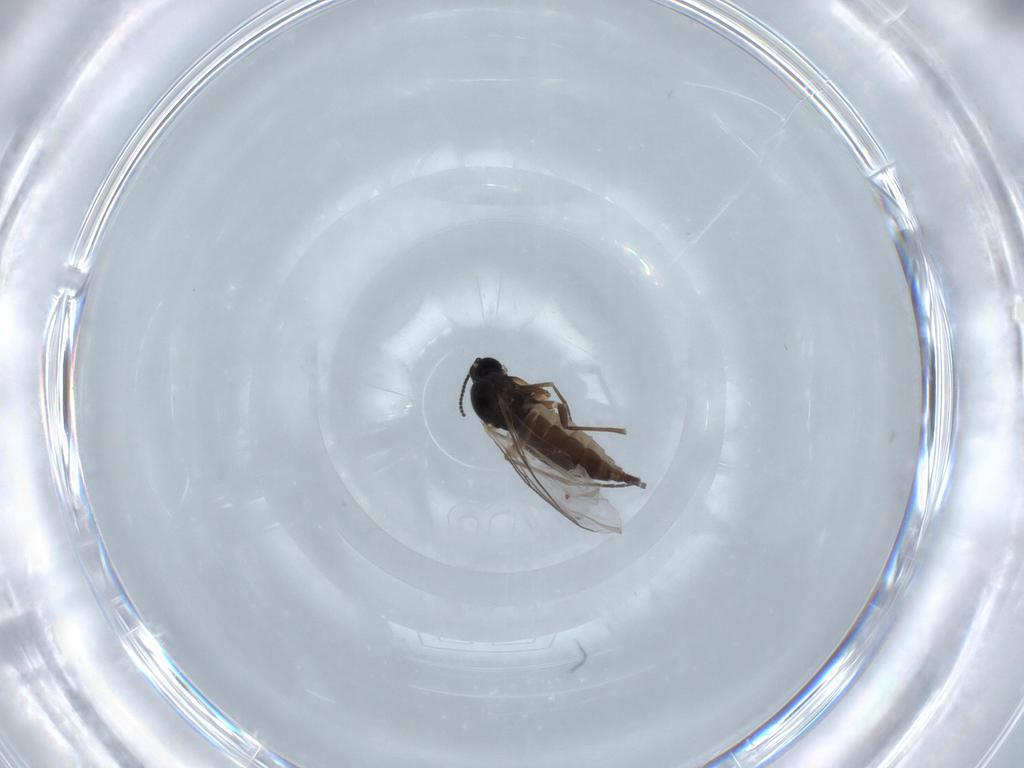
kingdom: Animalia
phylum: Arthropoda
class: Insecta
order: Diptera
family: Sciaridae
